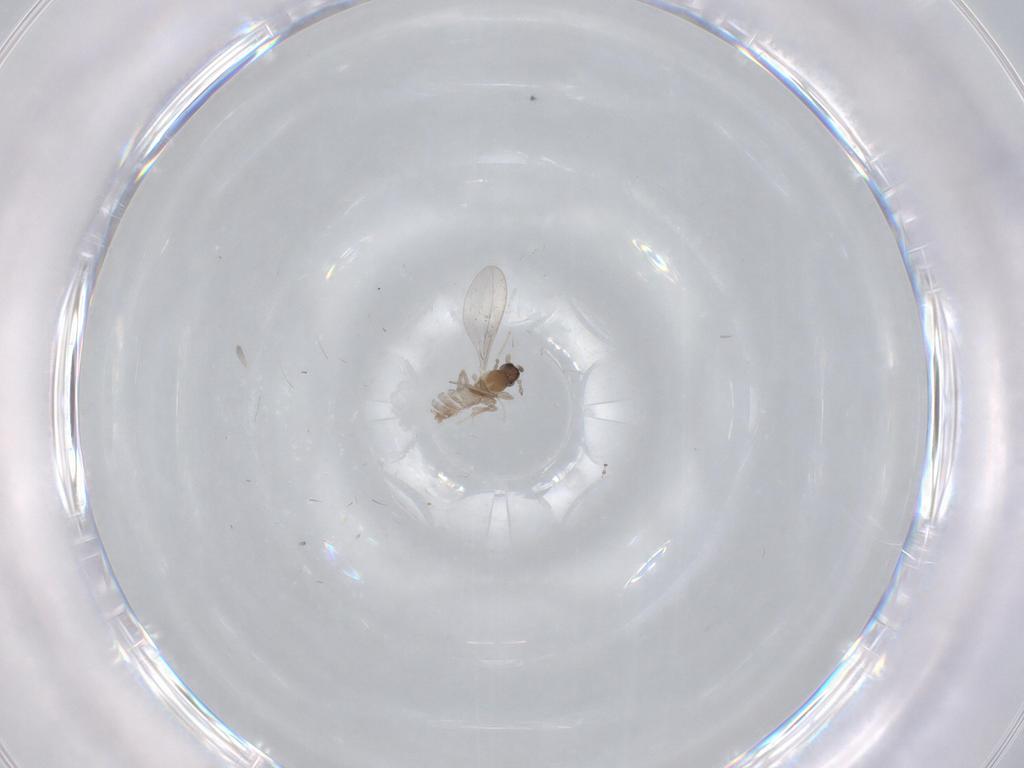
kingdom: Animalia
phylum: Arthropoda
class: Insecta
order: Diptera
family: Cecidomyiidae
